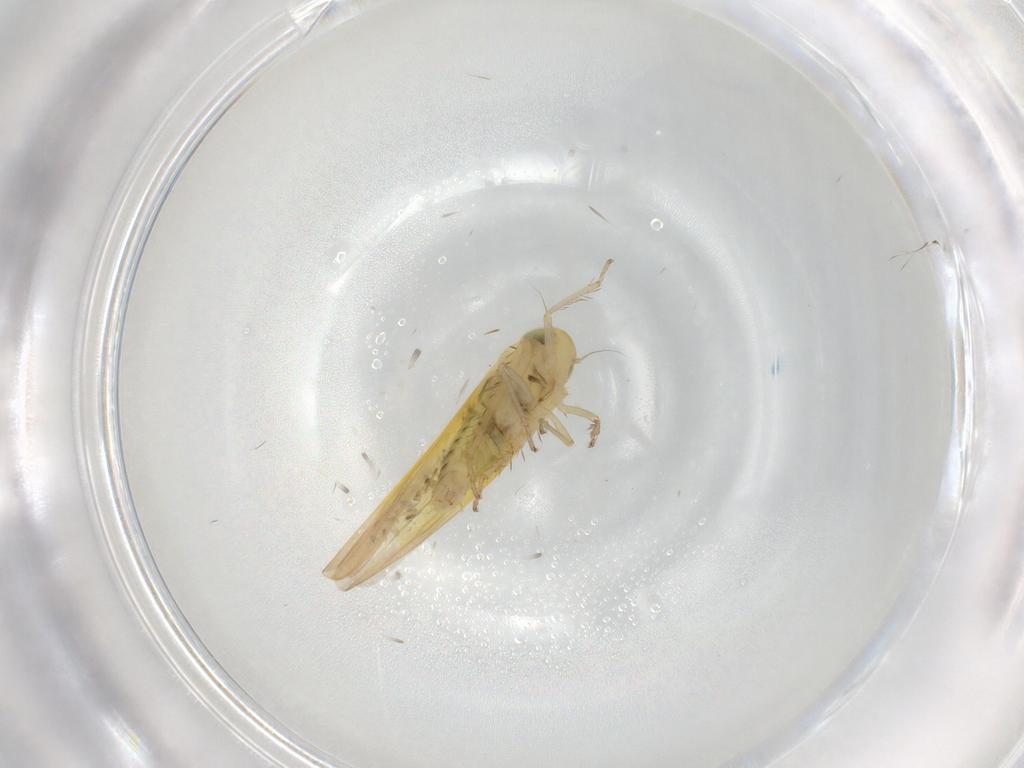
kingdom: Animalia
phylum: Arthropoda
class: Insecta
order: Hemiptera
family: Cicadellidae
